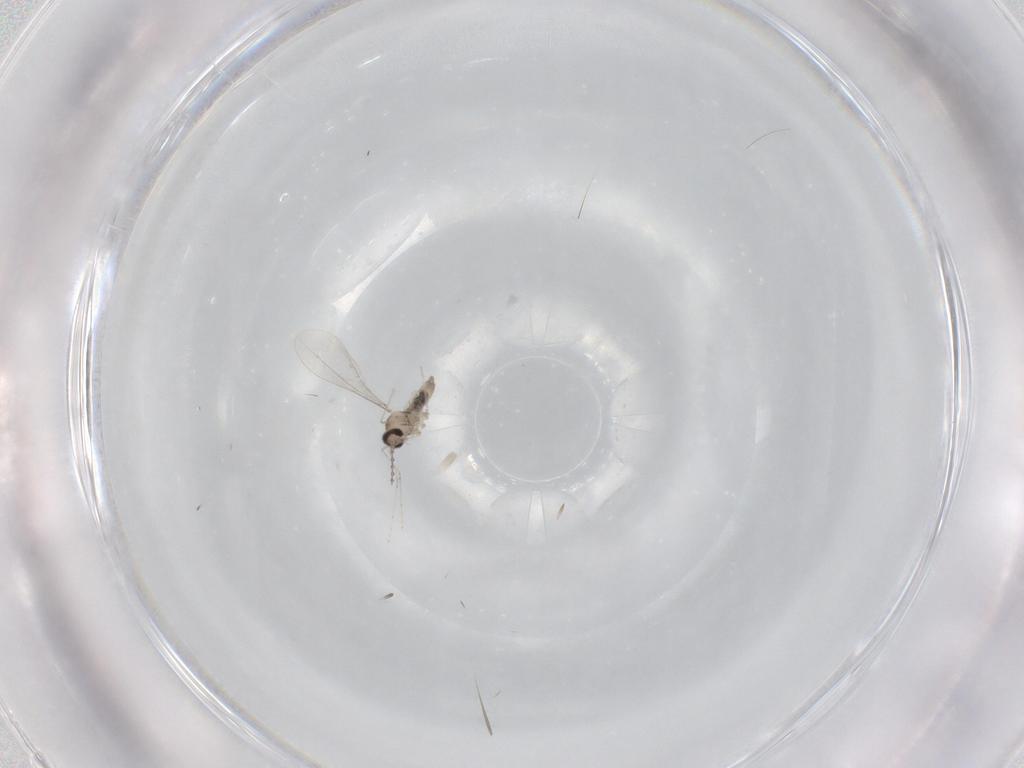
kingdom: Animalia
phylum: Arthropoda
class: Insecta
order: Diptera
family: Cecidomyiidae
